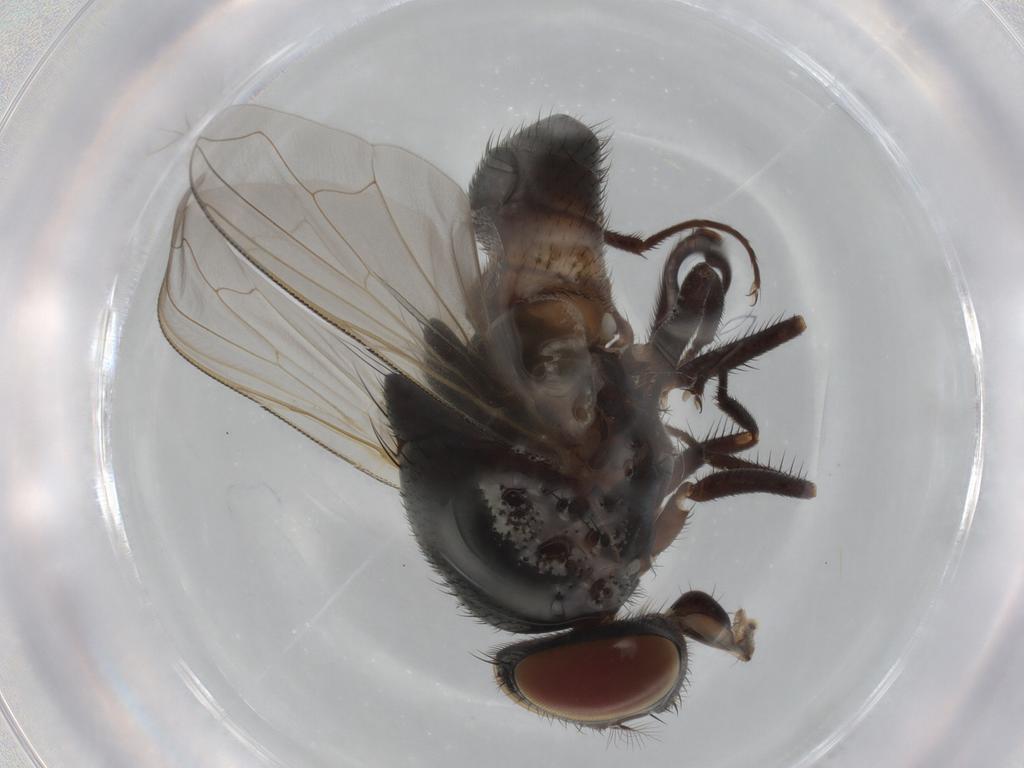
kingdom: Animalia
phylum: Arthropoda
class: Insecta
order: Diptera
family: Muscidae
